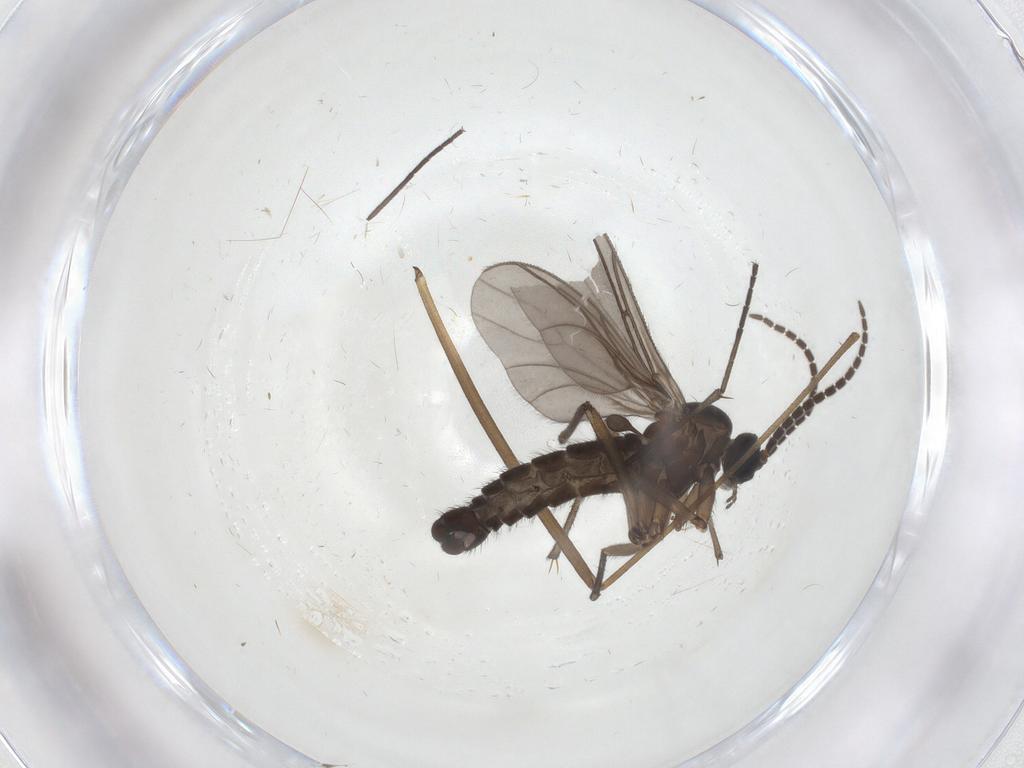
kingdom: Animalia
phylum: Arthropoda
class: Insecta
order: Diptera
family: Sciaridae
